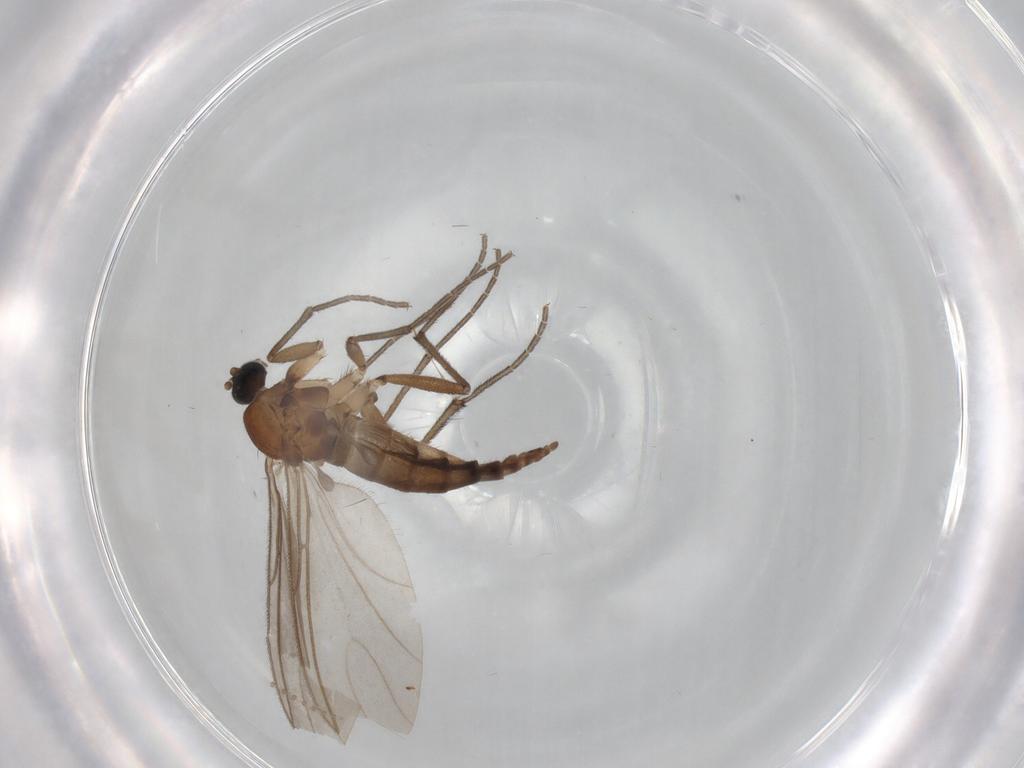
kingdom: Animalia
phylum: Arthropoda
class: Insecta
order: Diptera
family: Sciaridae
